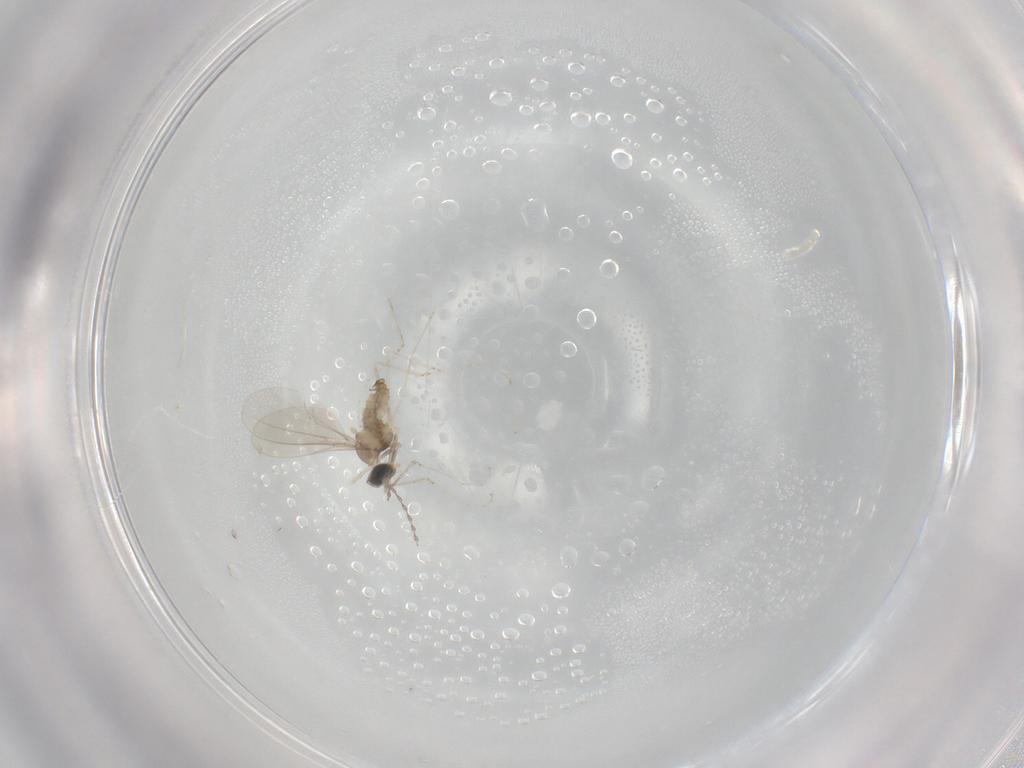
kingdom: Animalia
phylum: Arthropoda
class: Insecta
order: Diptera
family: Cecidomyiidae
